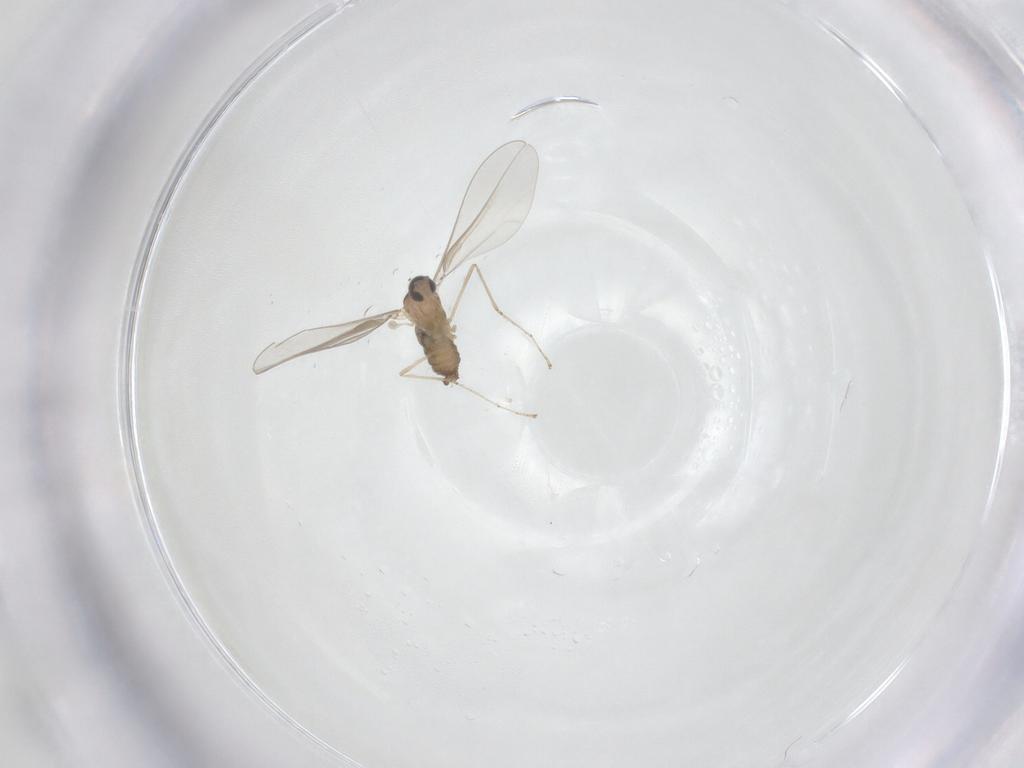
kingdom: Animalia
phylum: Arthropoda
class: Insecta
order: Diptera
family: Cecidomyiidae
